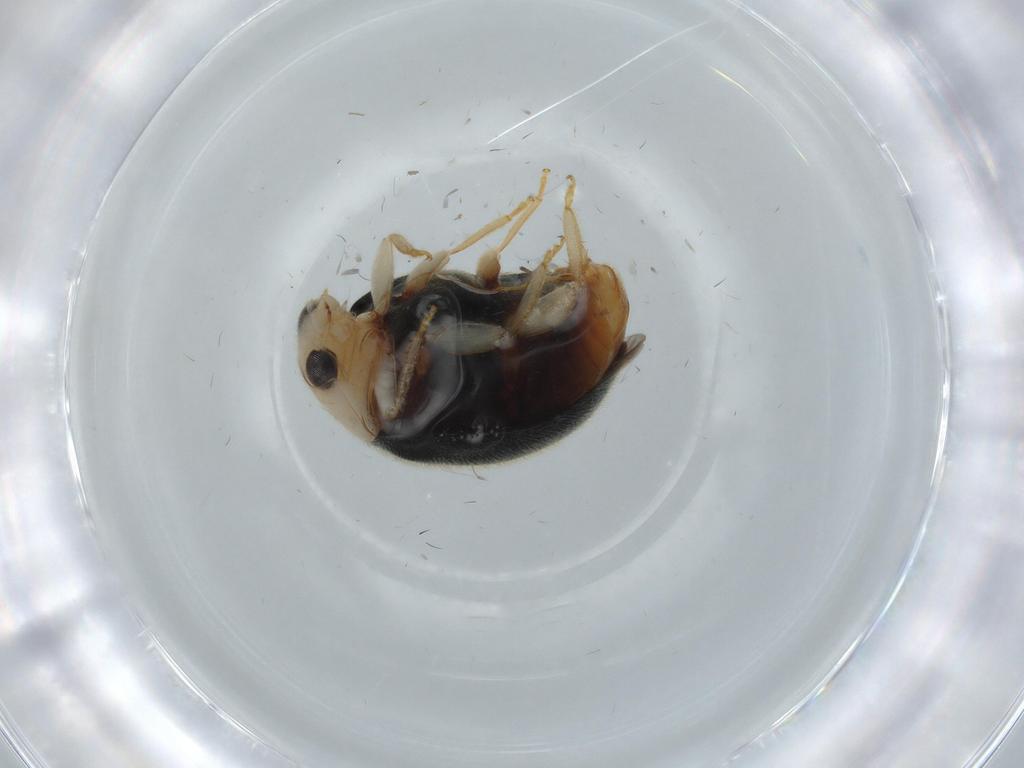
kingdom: Animalia
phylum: Arthropoda
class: Insecta
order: Coleoptera
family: Coccinellidae
